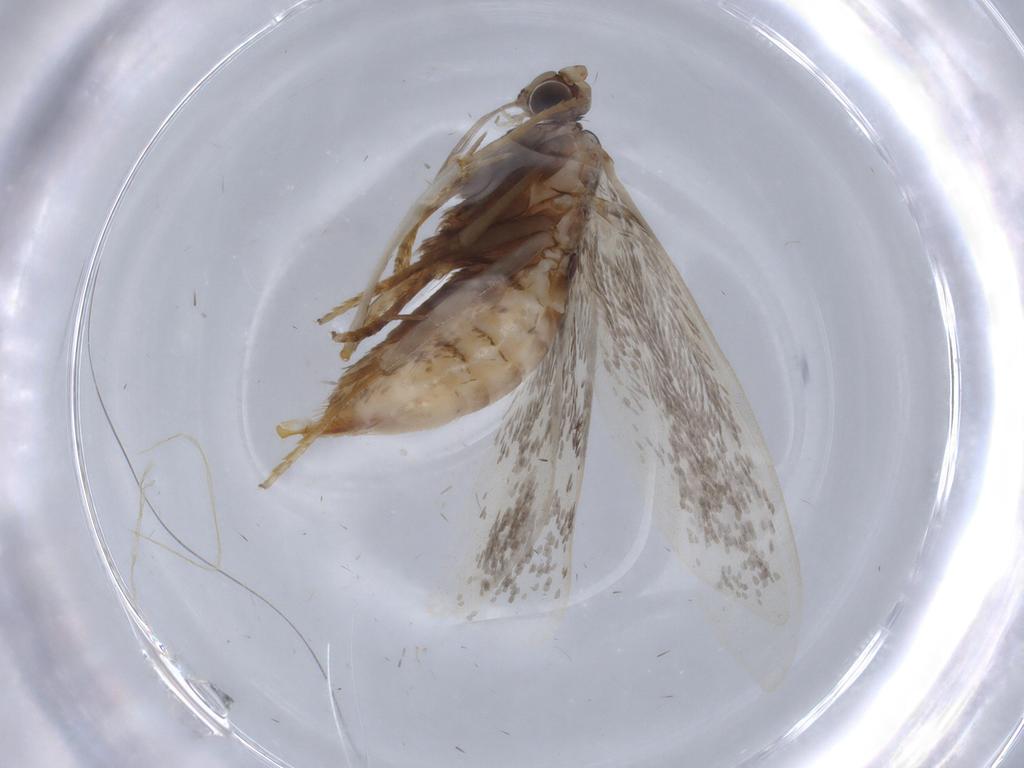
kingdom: Animalia
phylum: Arthropoda
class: Insecta
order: Lepidoptera
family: Adelidae
